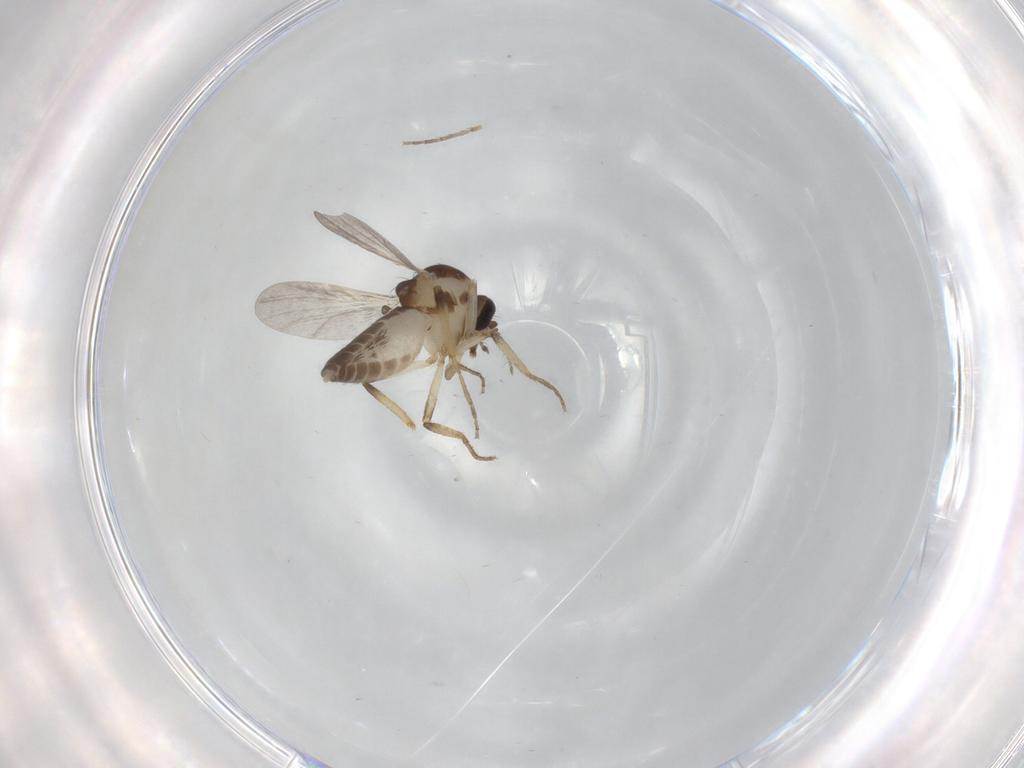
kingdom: Animalia
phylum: Arthropoda
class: Insecta
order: Diptera
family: Ceratopogonidae
